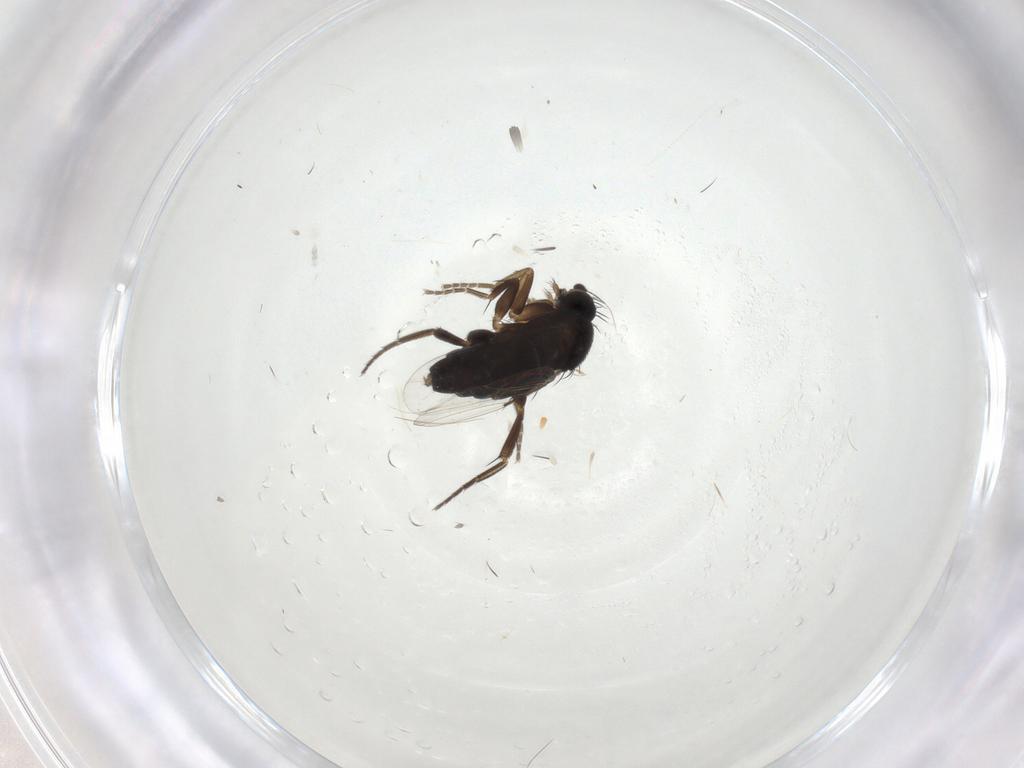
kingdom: Animalia
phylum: Arthropoda
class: Insecta
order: Diptera
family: Phoridae
